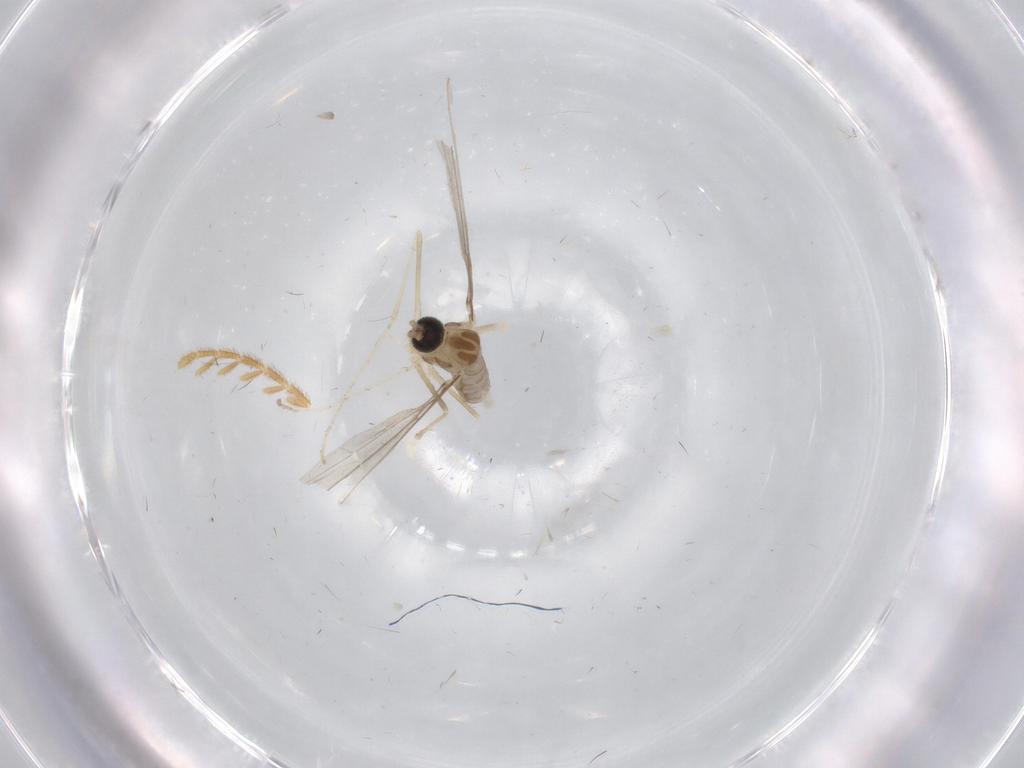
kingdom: Animalia
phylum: Arthropoda
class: Insecta
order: Diptera
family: Cecidomyiidae
